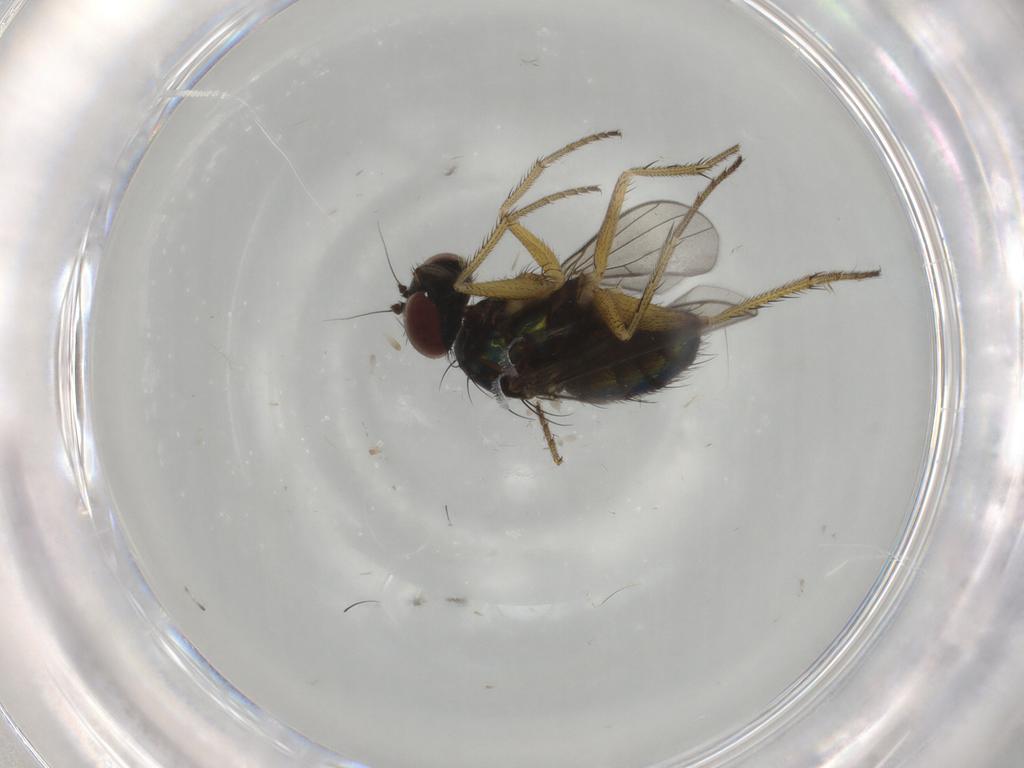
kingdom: Animalia
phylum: Arthropoda
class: Insecta
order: Diptera
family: Dolichopodidae
